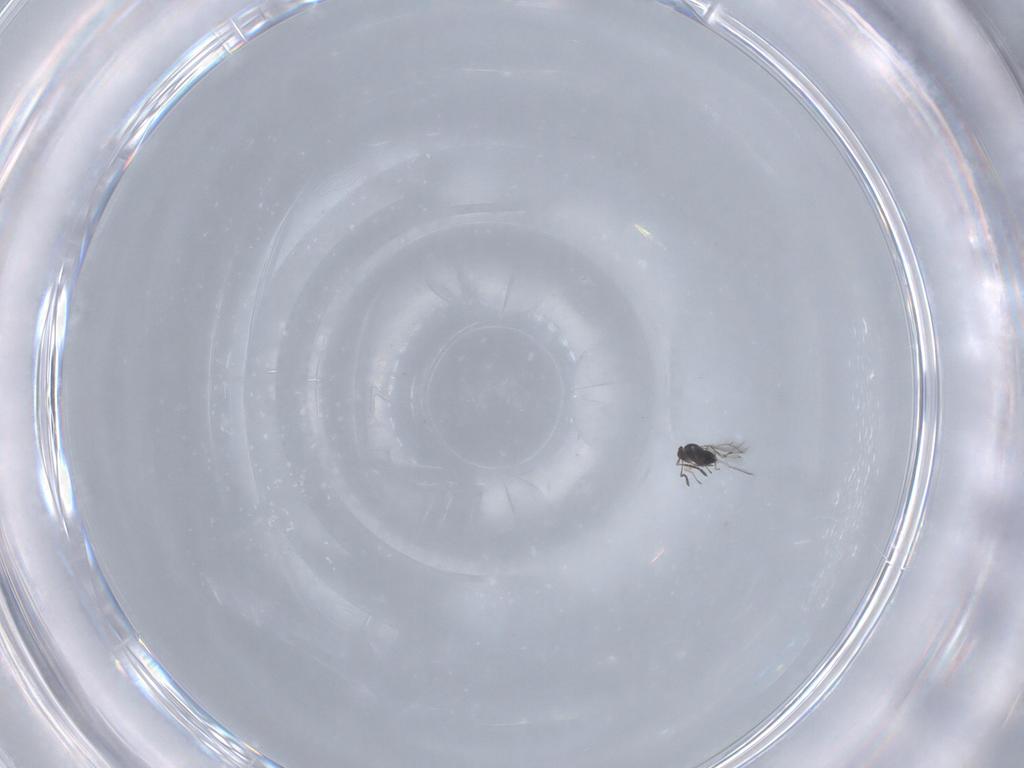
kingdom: Animalia
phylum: Arthropoda
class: Insecta
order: Hymenoptera
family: Mymaridae
